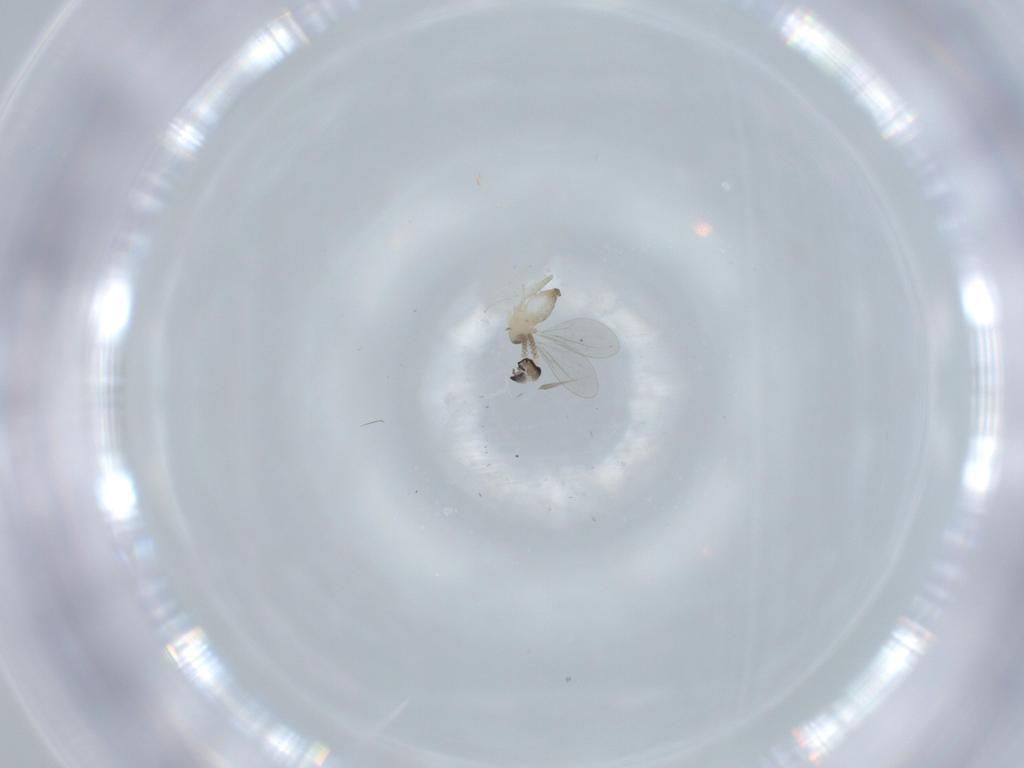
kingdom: Animalia
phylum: Arthropoda
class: Insecta
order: Diptera
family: Cecidomyiidae
